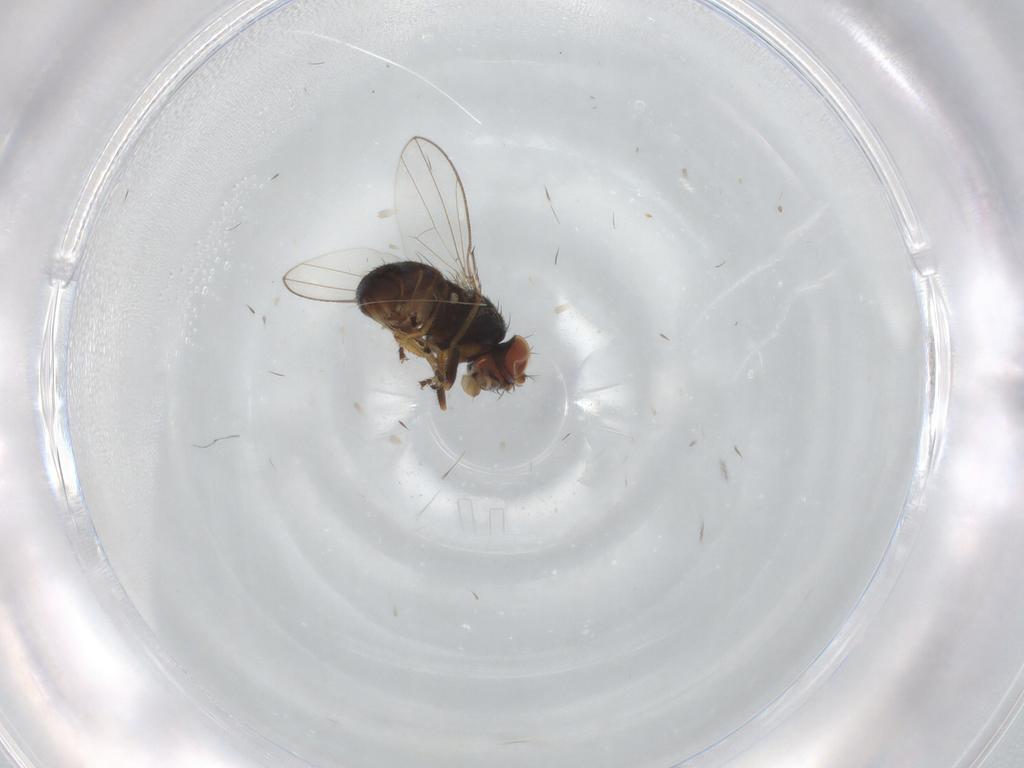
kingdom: Animalia
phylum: Arthropoda
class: Insecta
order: Diptera
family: Ephydridae
